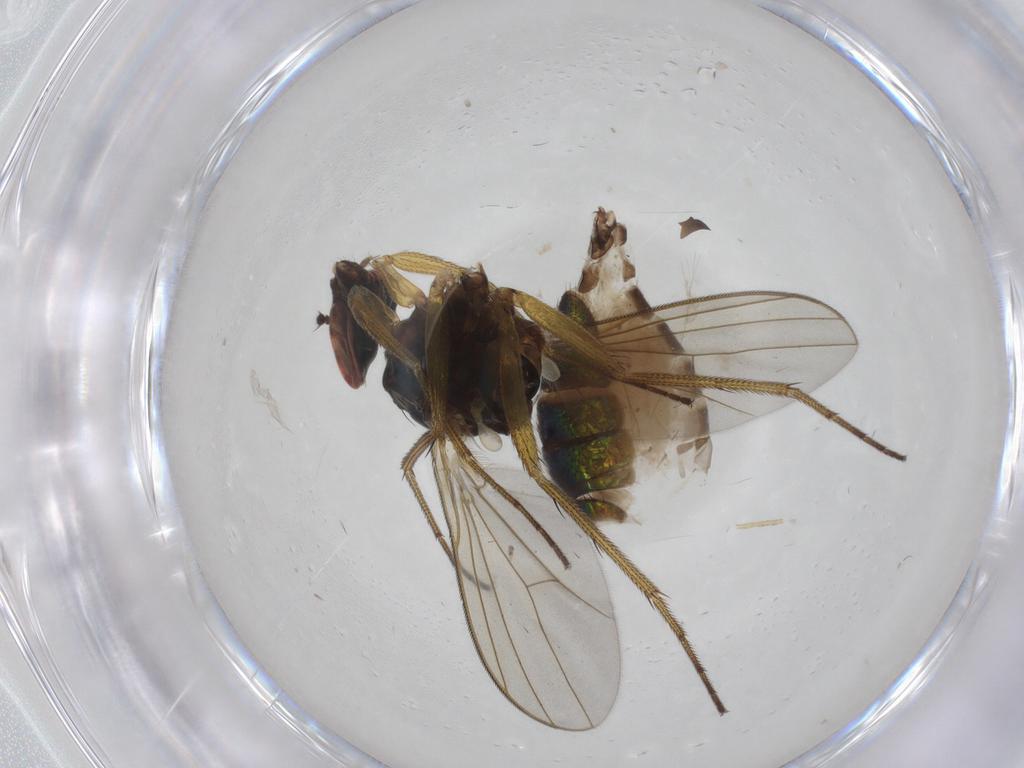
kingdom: Animalia
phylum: Arthropoda
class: Insecta
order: Diptera
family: Dolichopodidae
